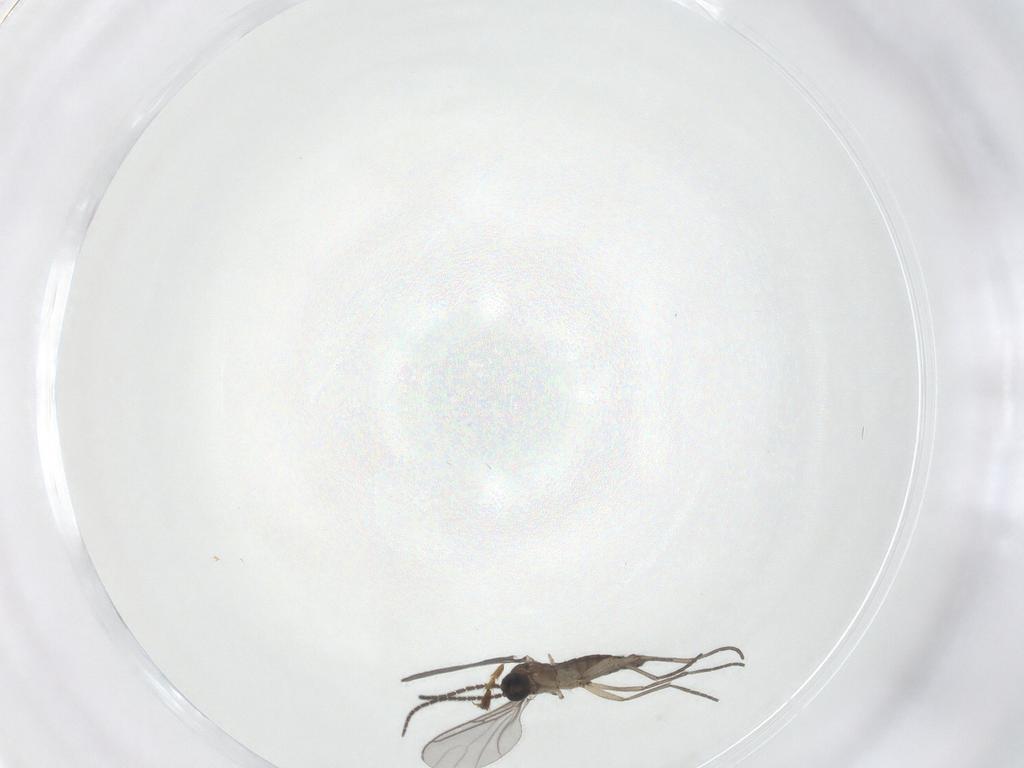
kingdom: Animalia
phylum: Arthropoda
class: Insecta
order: Diptera
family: Sciaridae
